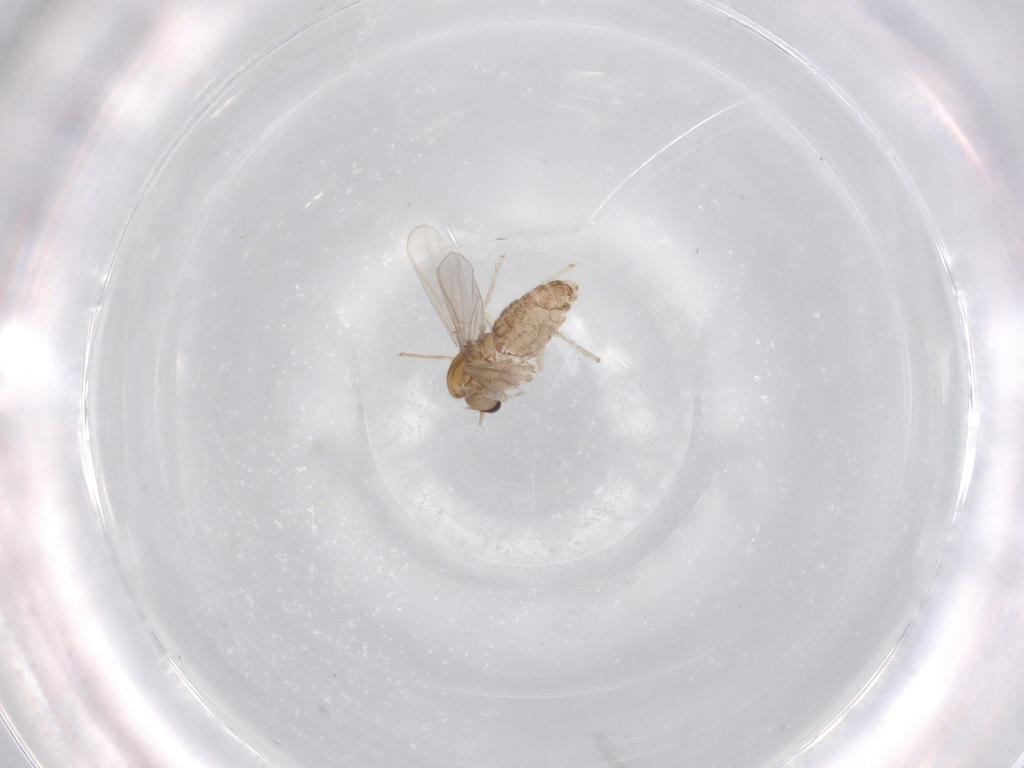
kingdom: Animalia
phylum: Arthropoda
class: Insecta
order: Diptera
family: Chironomidae
